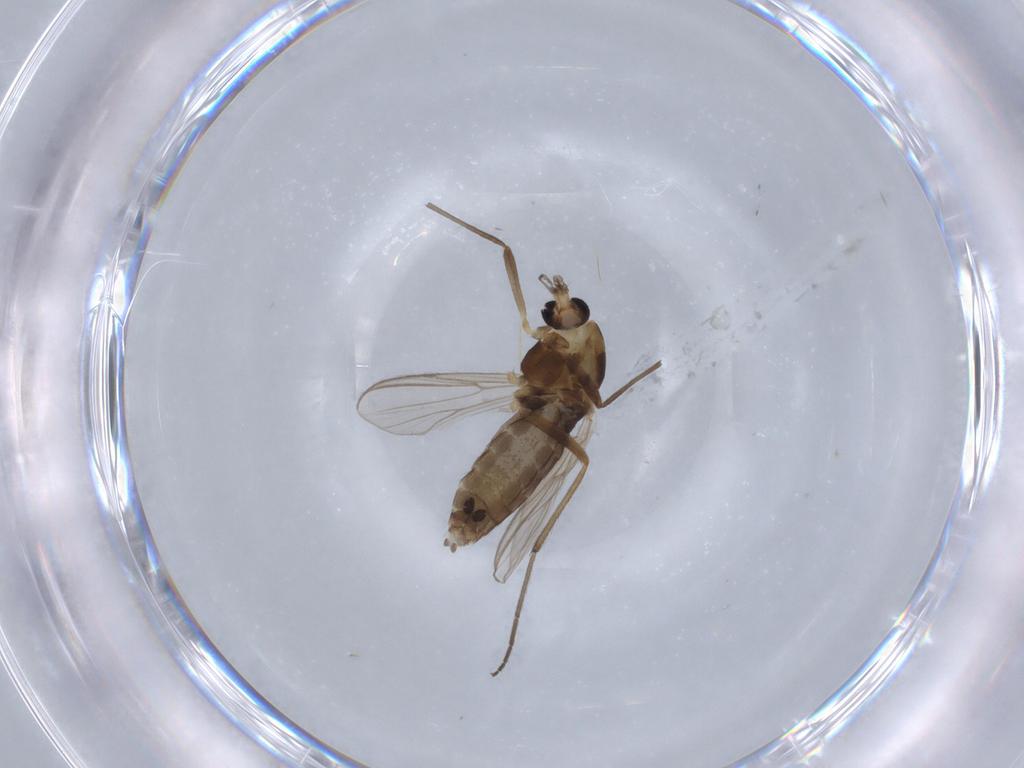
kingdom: Animalia
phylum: Arthropoda
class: Insecta
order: Diptera
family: Chironomidae
